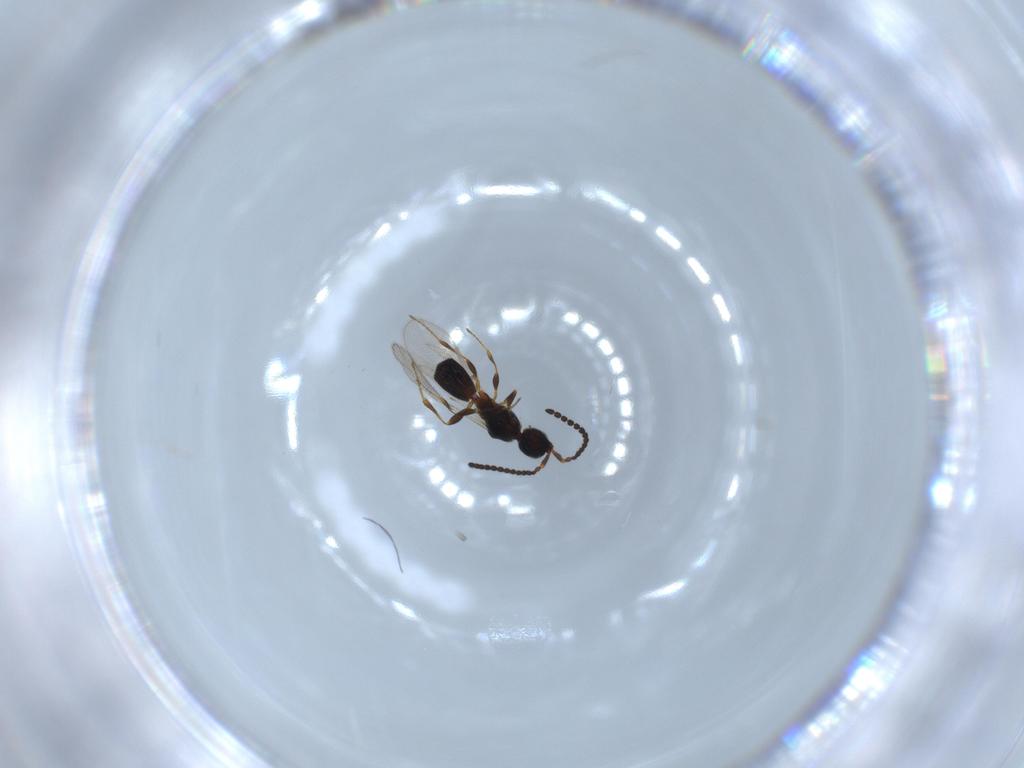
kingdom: Animalia
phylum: Arthropoda
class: Insecta
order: Hymenoptera
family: Diapriidae
